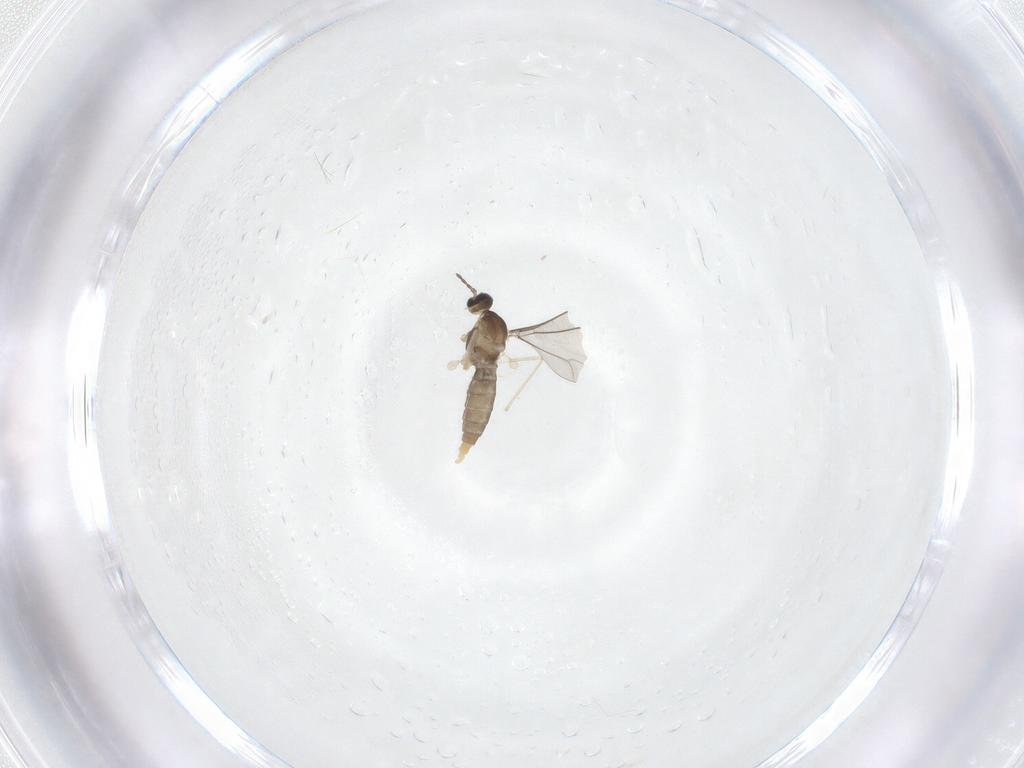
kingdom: Animalia
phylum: Arthropoda
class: Insecta
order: Diptera
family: Cecidomyiidae
